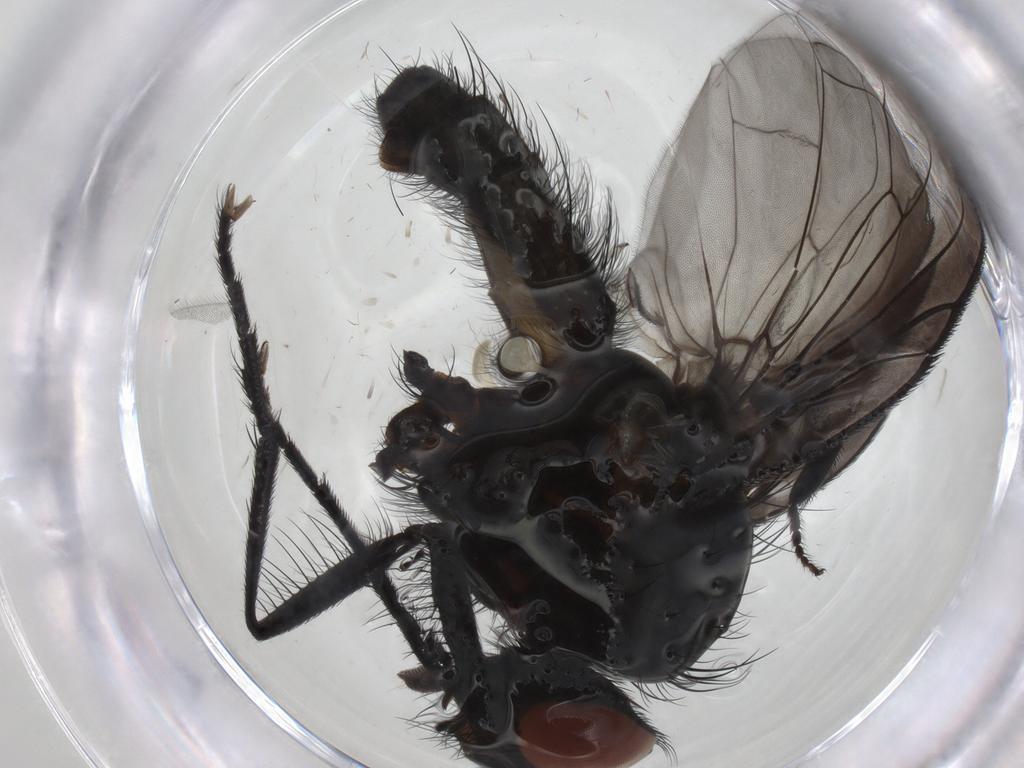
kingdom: Animalia
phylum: Arthropoda
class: Insecta
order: Diptera
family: Anthomyiidae
